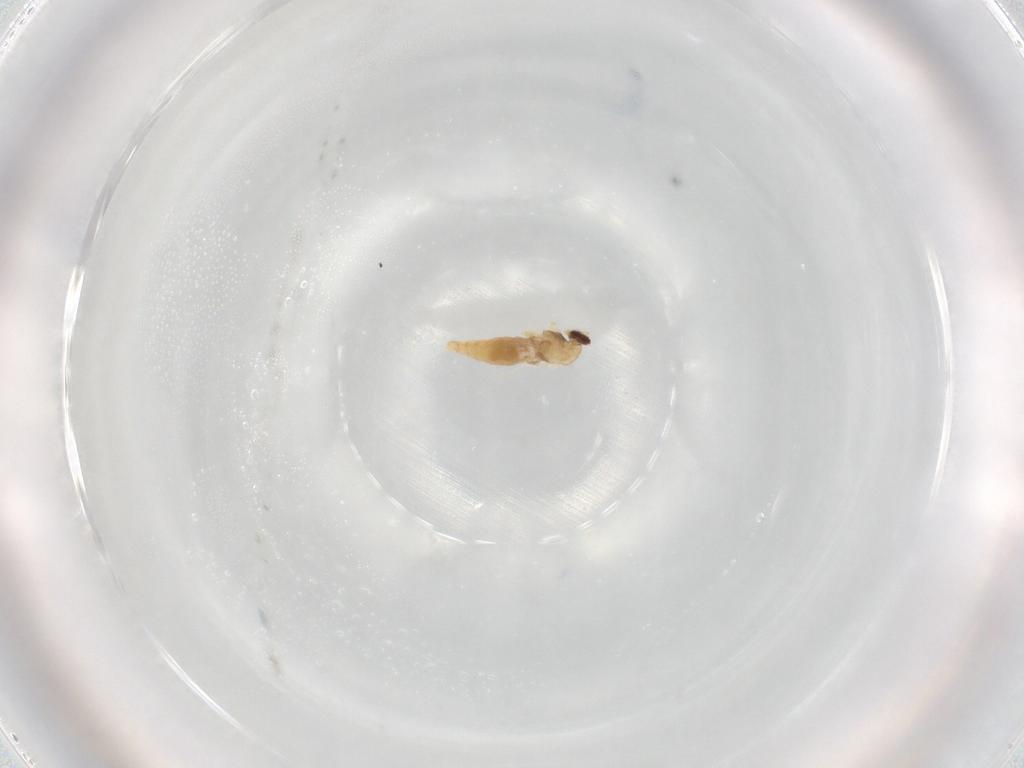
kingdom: Animalia
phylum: Arthropoda
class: Insecta
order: Diptera
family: Cecidomyiidae
